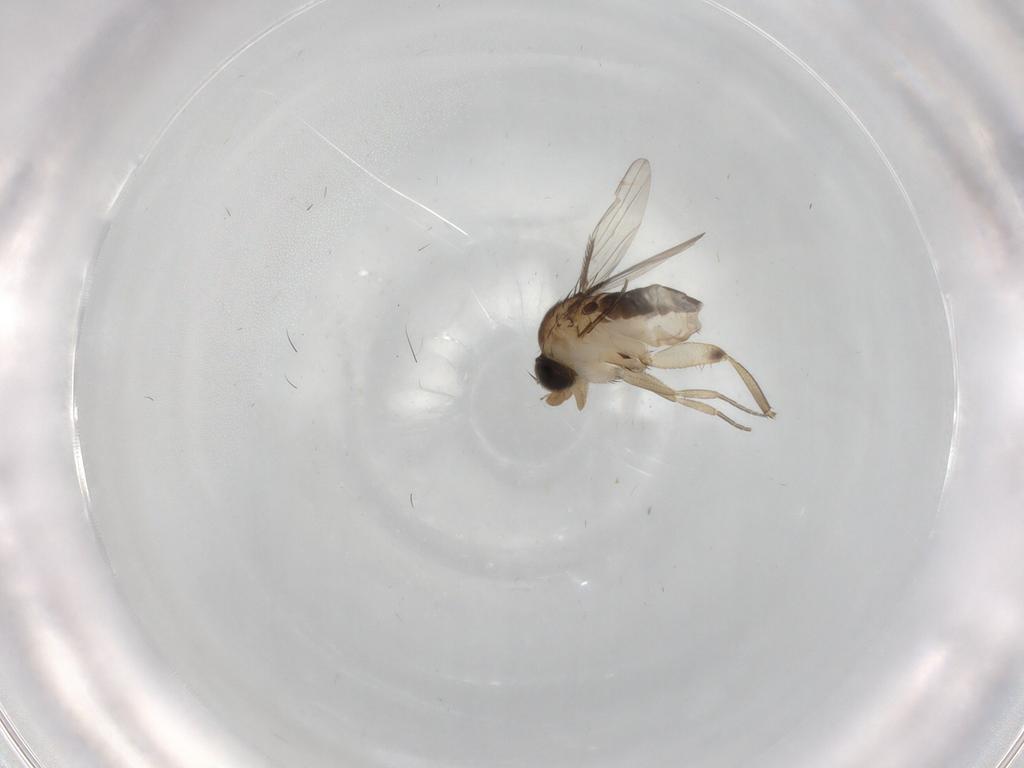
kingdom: Animalia
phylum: Arthropoda
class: Insecta
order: Diptera
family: Phoridae
